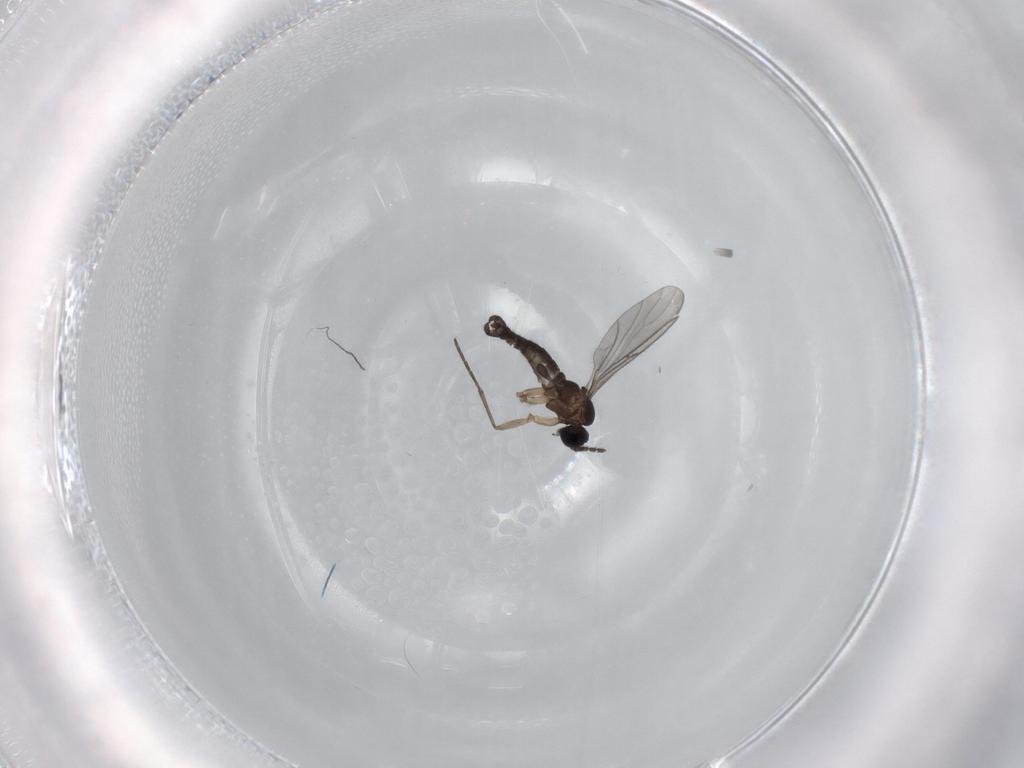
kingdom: Animalia
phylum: Arthropoda
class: Insecta
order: Diptera
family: Sciaridae
